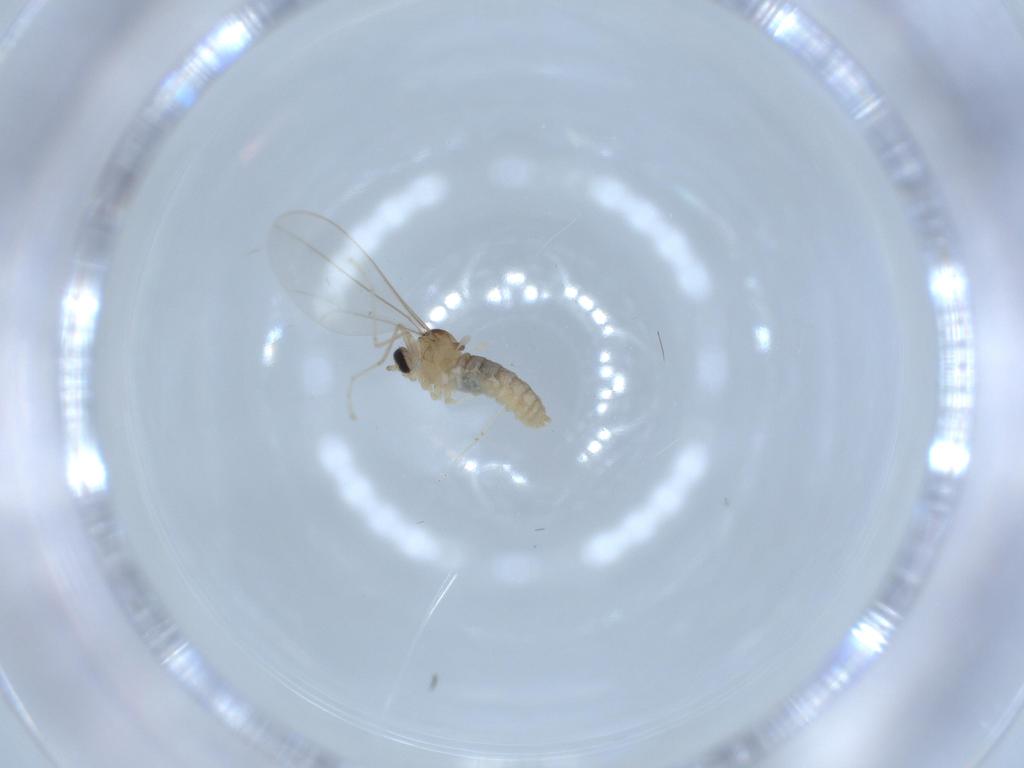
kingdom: Animalia
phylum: Arthropoda
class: Insecta
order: Diptera
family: Cecidomyiidae
